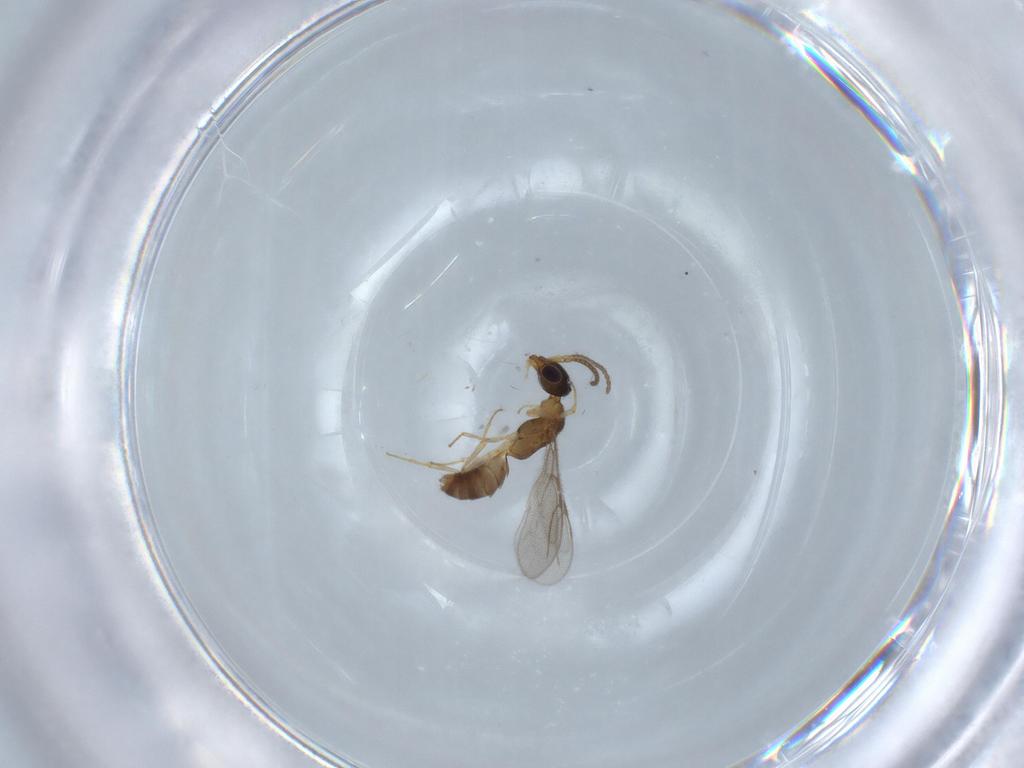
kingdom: Animalia
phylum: Arthropoda
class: Insecta
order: Hymenoptera
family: Bethylidae
